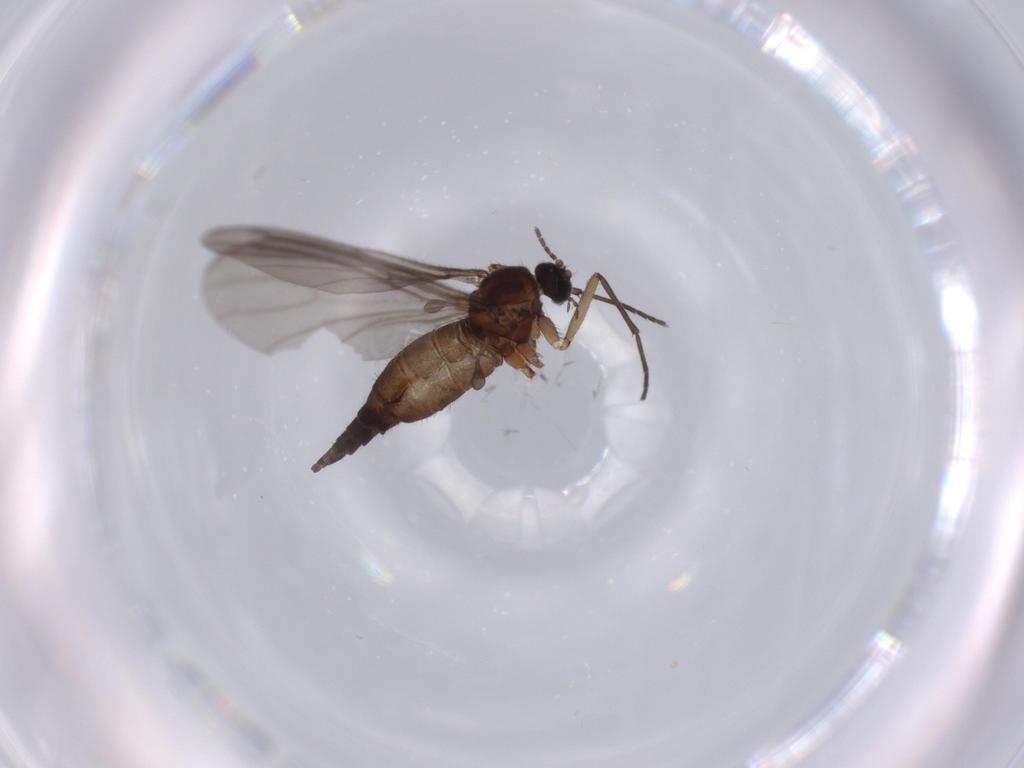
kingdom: Animalia
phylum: Arthropoda
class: Insecta
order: Diptera
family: Sciaridae
